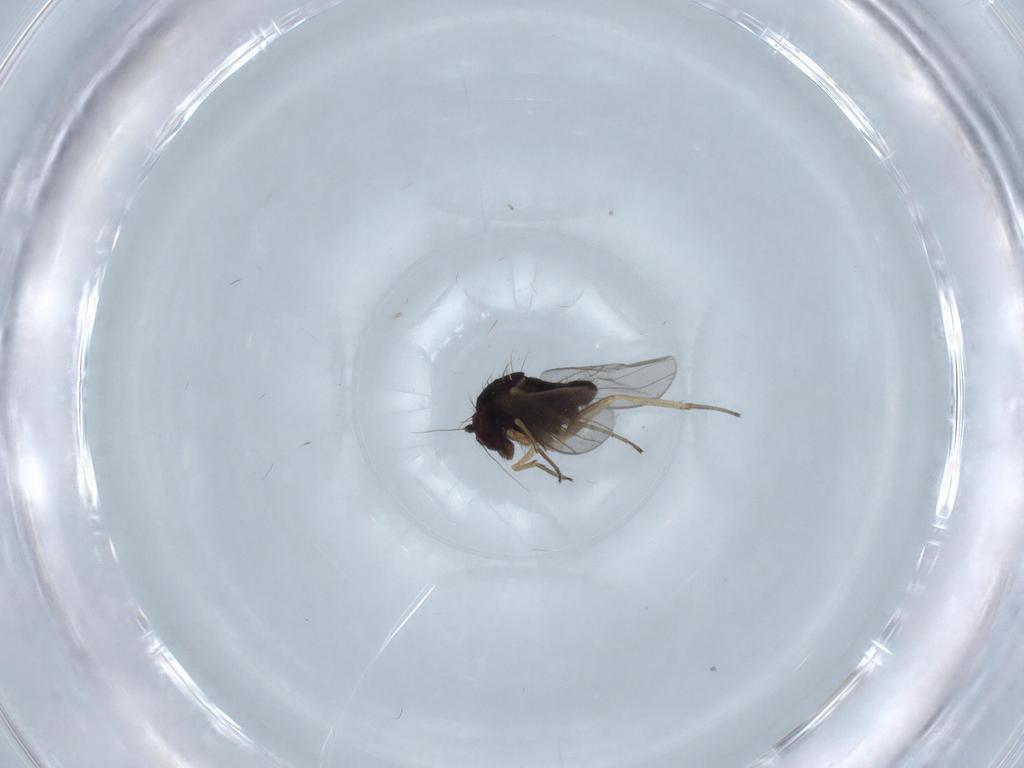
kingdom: Animalia
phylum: Arthropoda
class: Insecta
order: Diptera
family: Dolichopodidae
